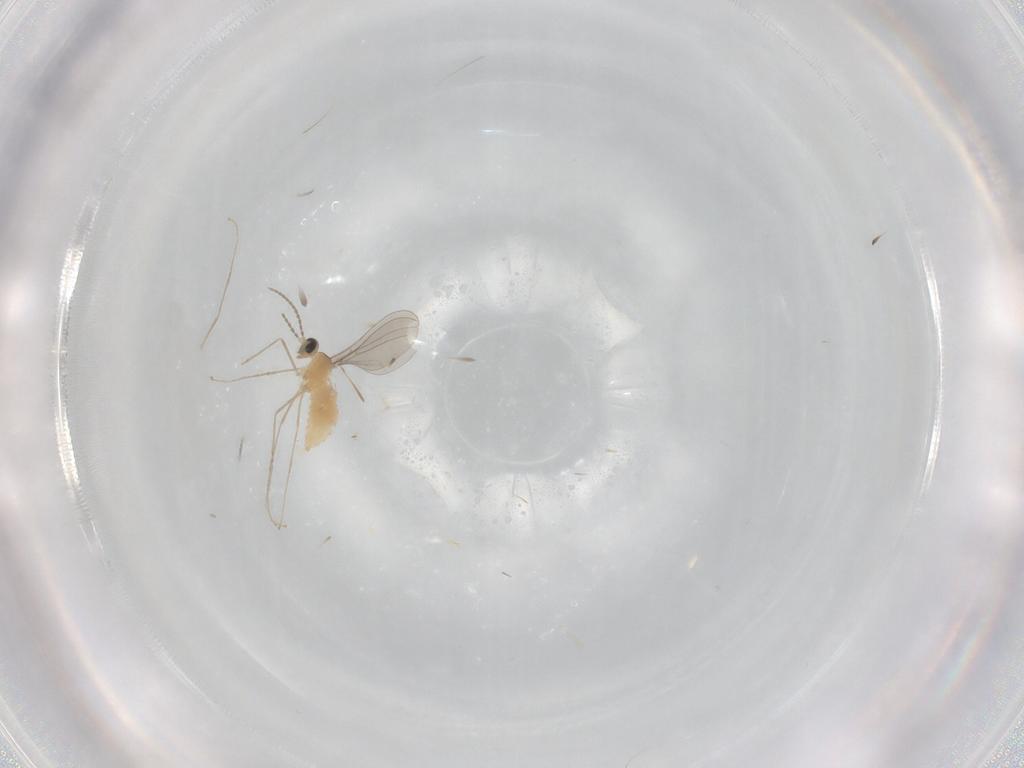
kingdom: Animalia
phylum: Arthropoda
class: Insecta
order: Diptera
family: Cecidomyiidae
